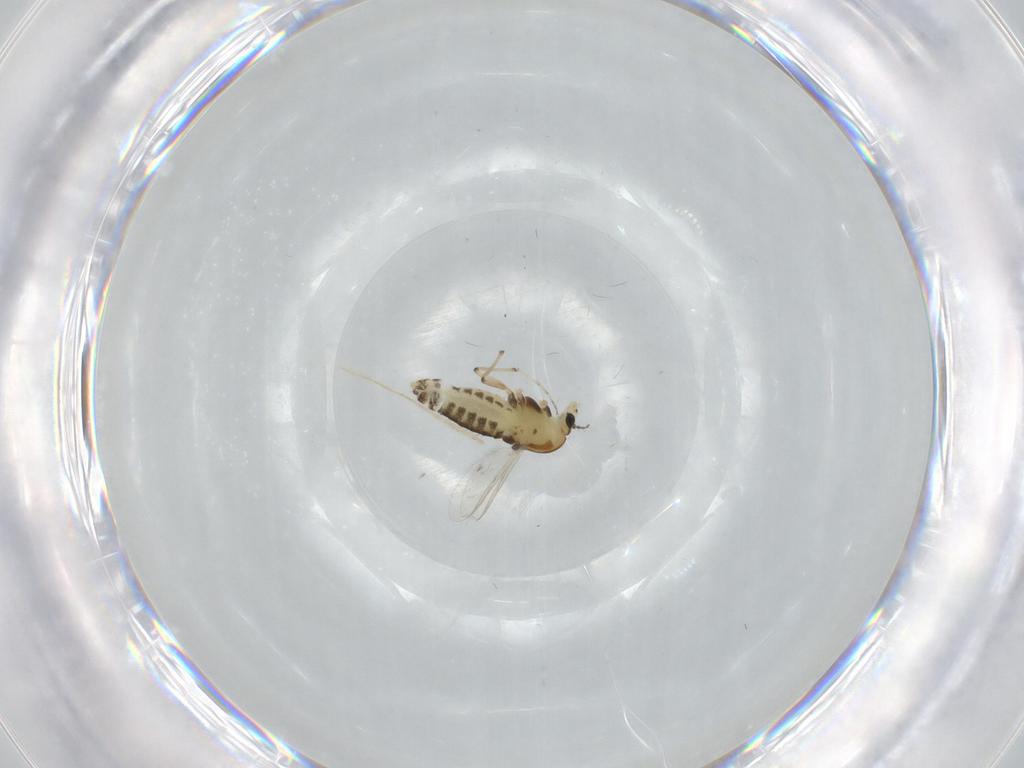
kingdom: Animalia
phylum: Arthropoda
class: Insecta
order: Diptera
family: Chironomidae
